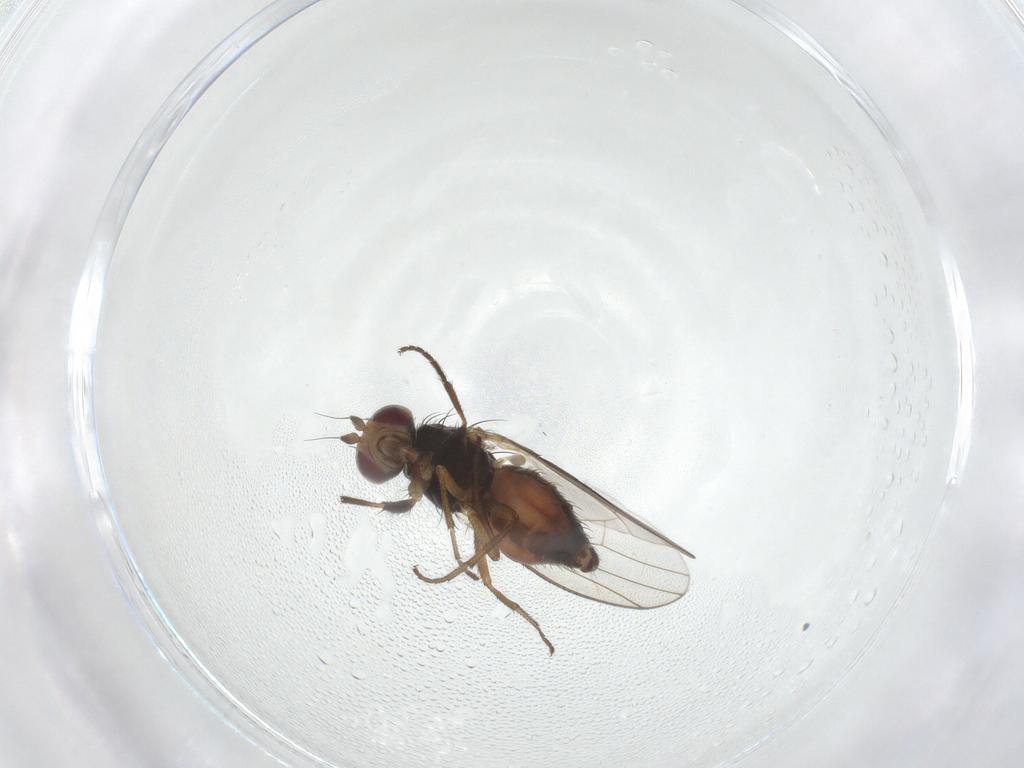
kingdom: Animalia
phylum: Arthropoda
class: Insecta
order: Diptera
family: Heleomyzidae
